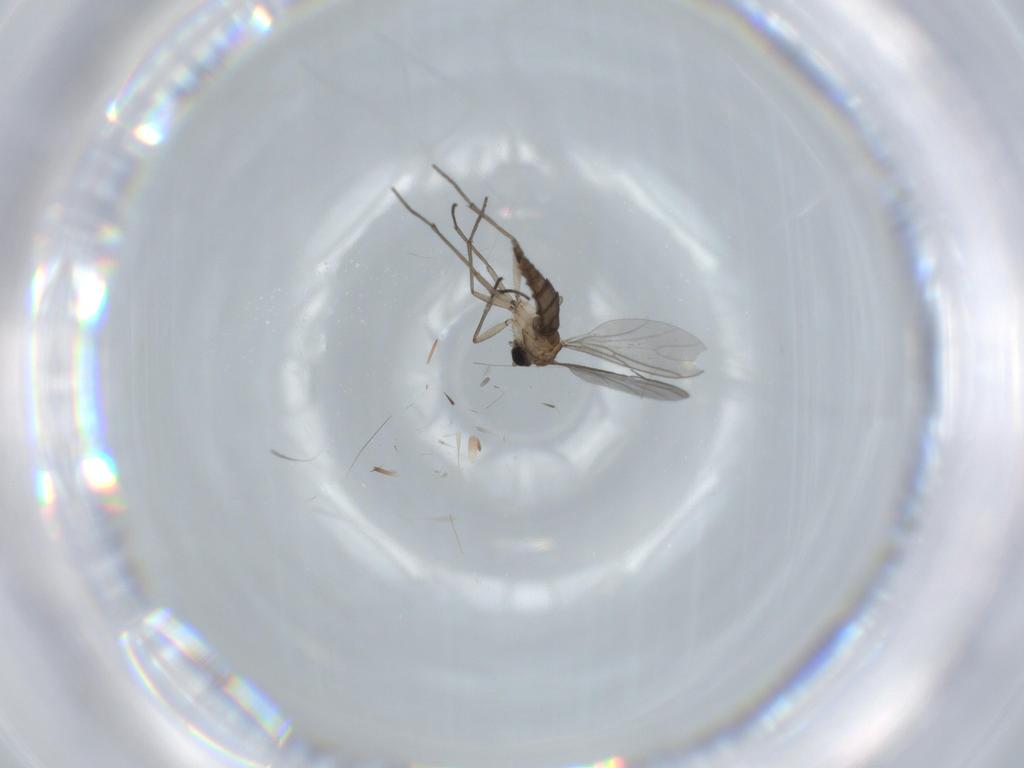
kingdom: Animalia
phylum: Arthropoda
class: Insecta
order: Diptera
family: Sciaridae
